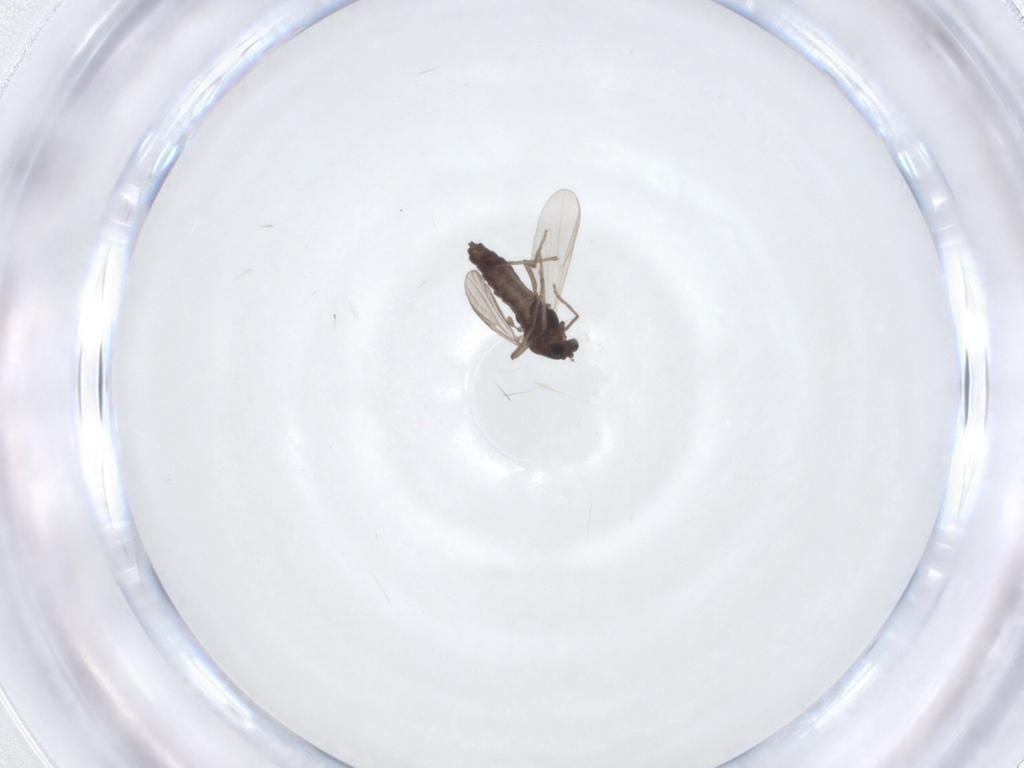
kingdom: Animalia
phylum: Arthropoda
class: Insecta
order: Diptera
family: Chironomidae
